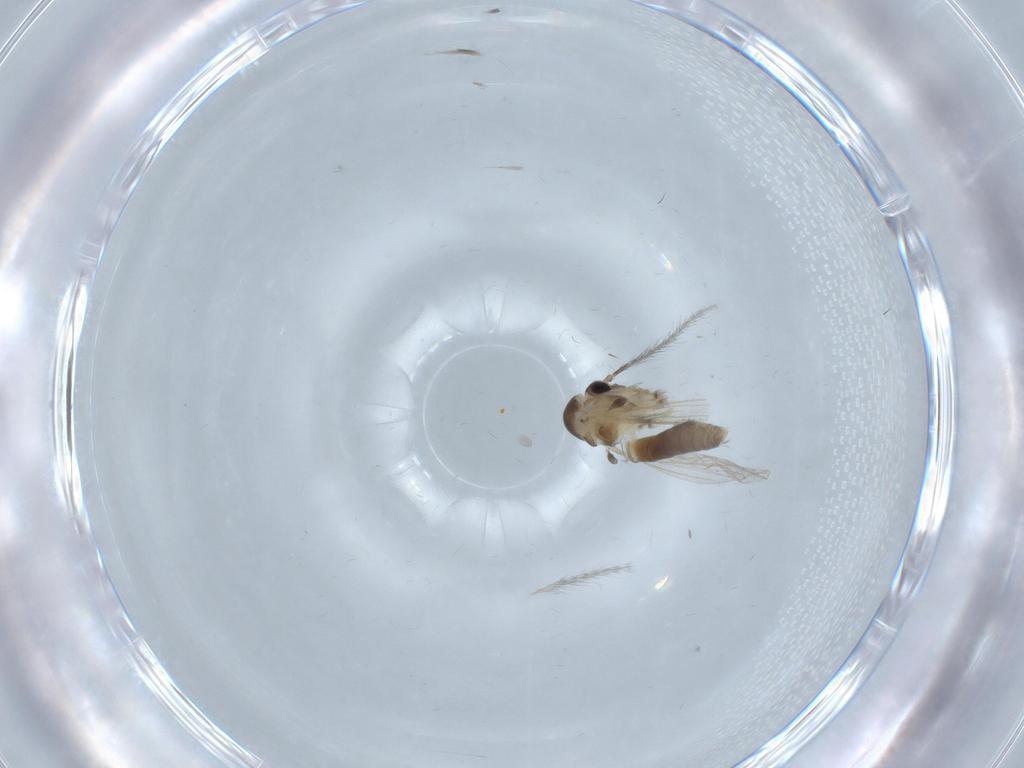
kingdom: Animalia
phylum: Arthropoda
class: Insecta
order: Diptera
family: Psychodidae
